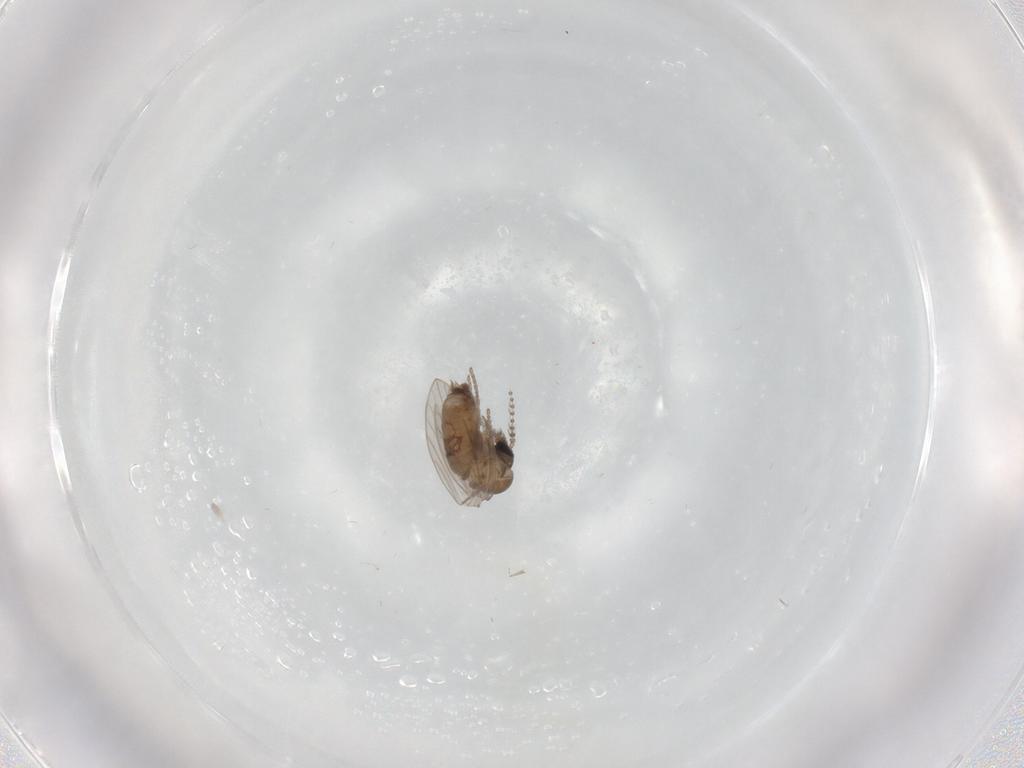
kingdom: Animalia
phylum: Arthropoda
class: Insecta
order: Diptera
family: Psychodidae
